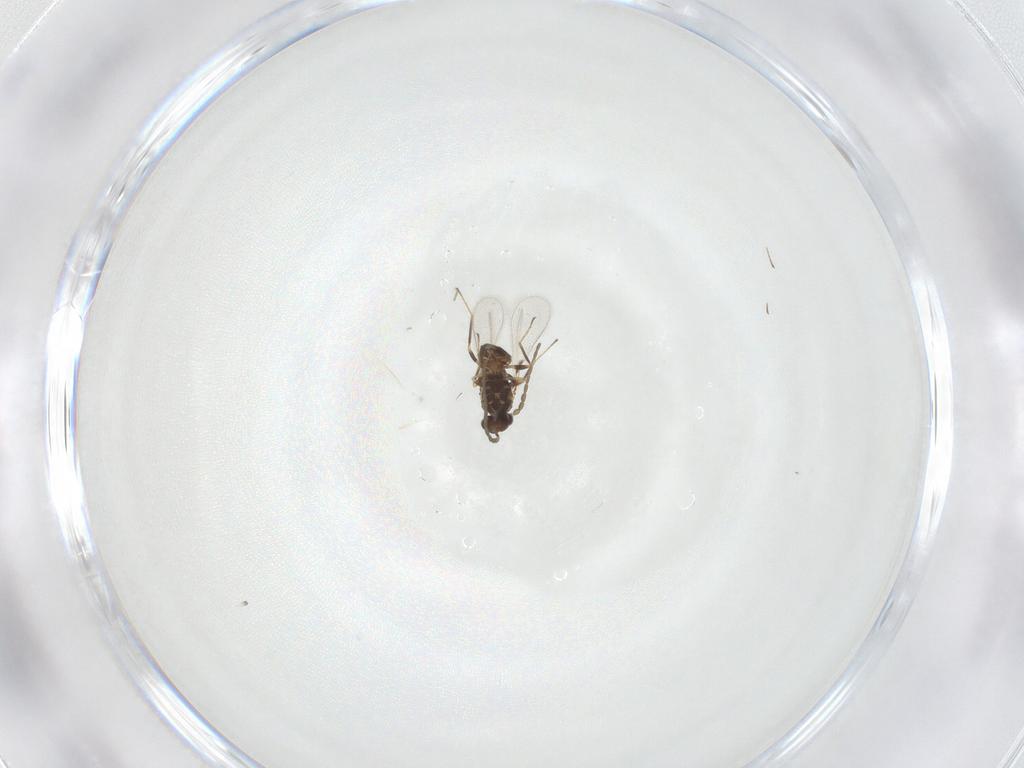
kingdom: Animalia
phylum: Arthropoda
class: Insecta
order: Hymenoptera
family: Mymaridae
